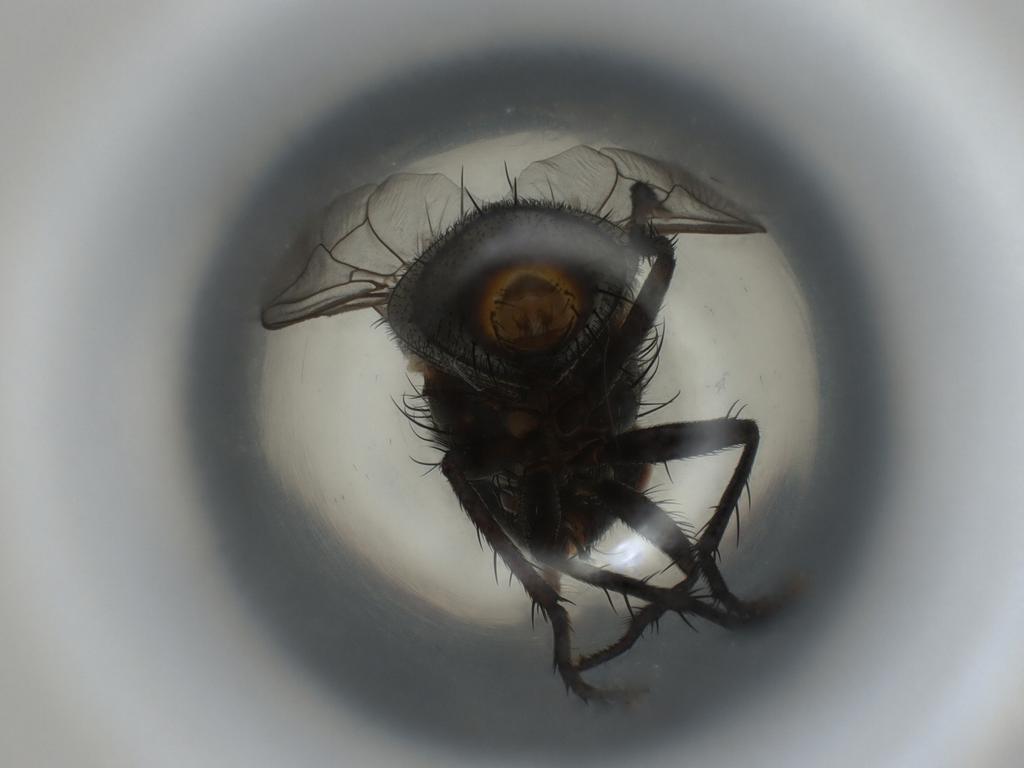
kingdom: Animalia
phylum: Arthropoda
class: Insecta
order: Diptera
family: Sarcophagidae
